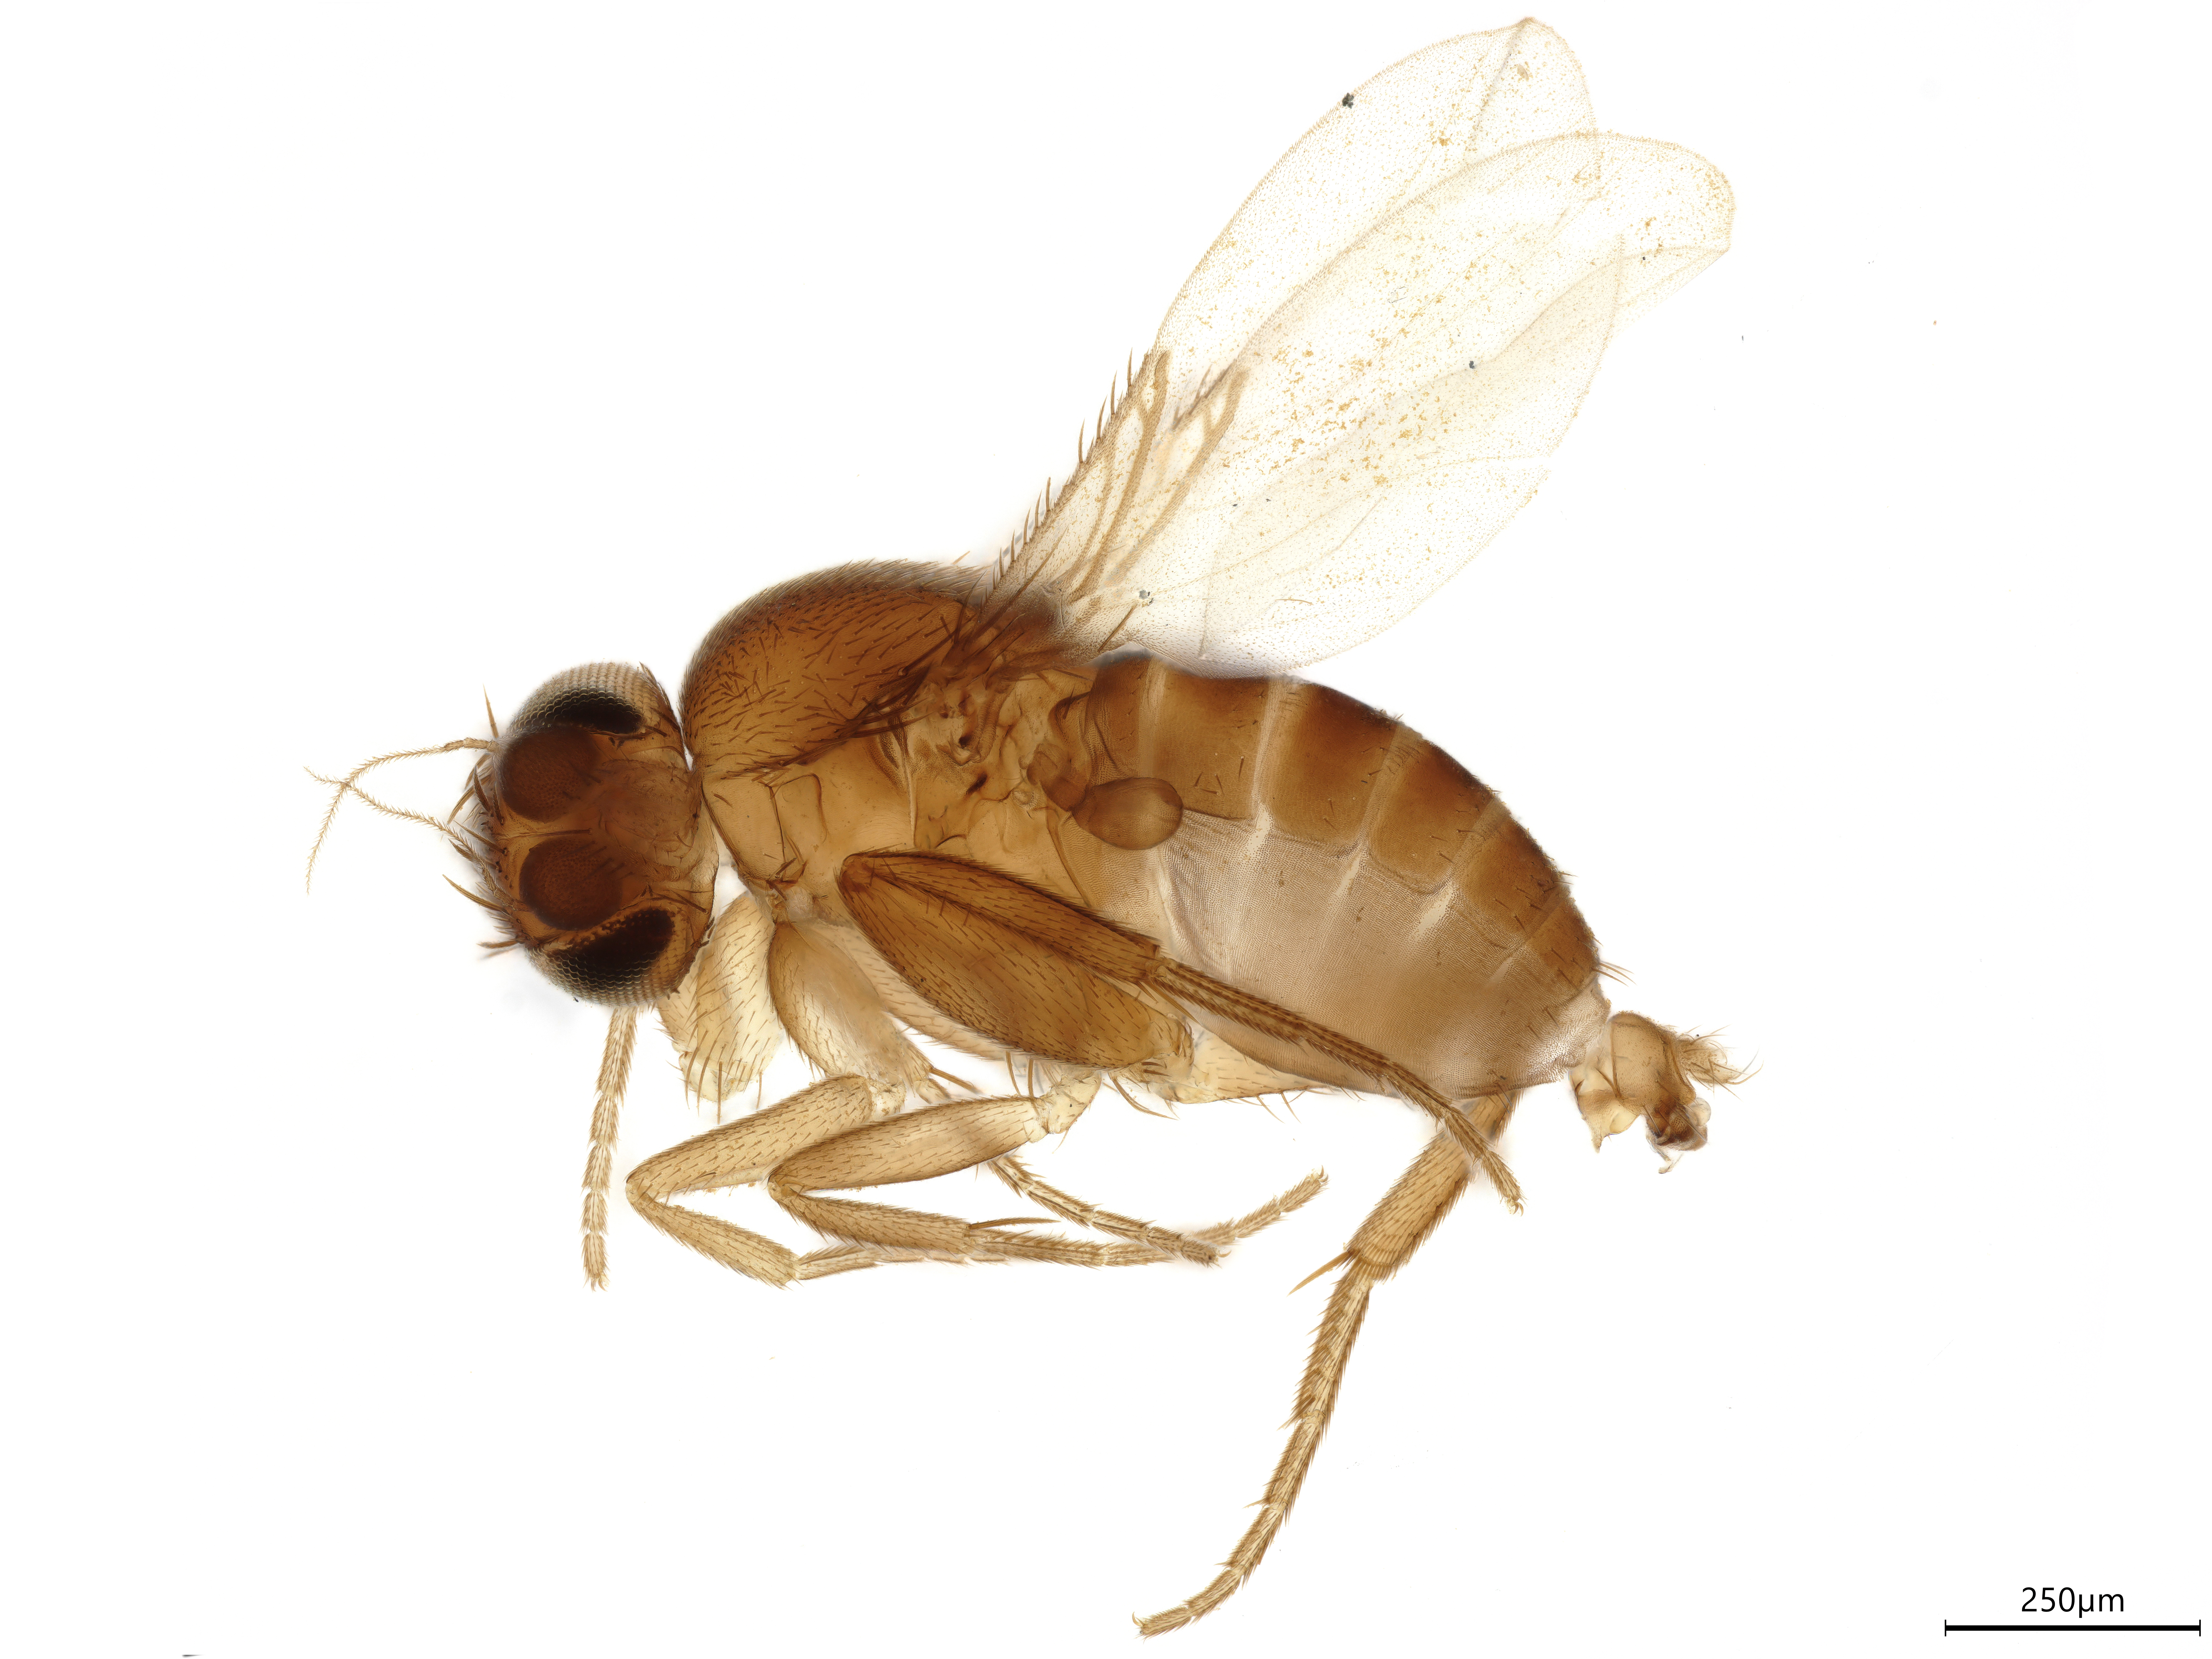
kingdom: Animalia
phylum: Arthropoda
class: Insecta
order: Diptera
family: Phoridae
